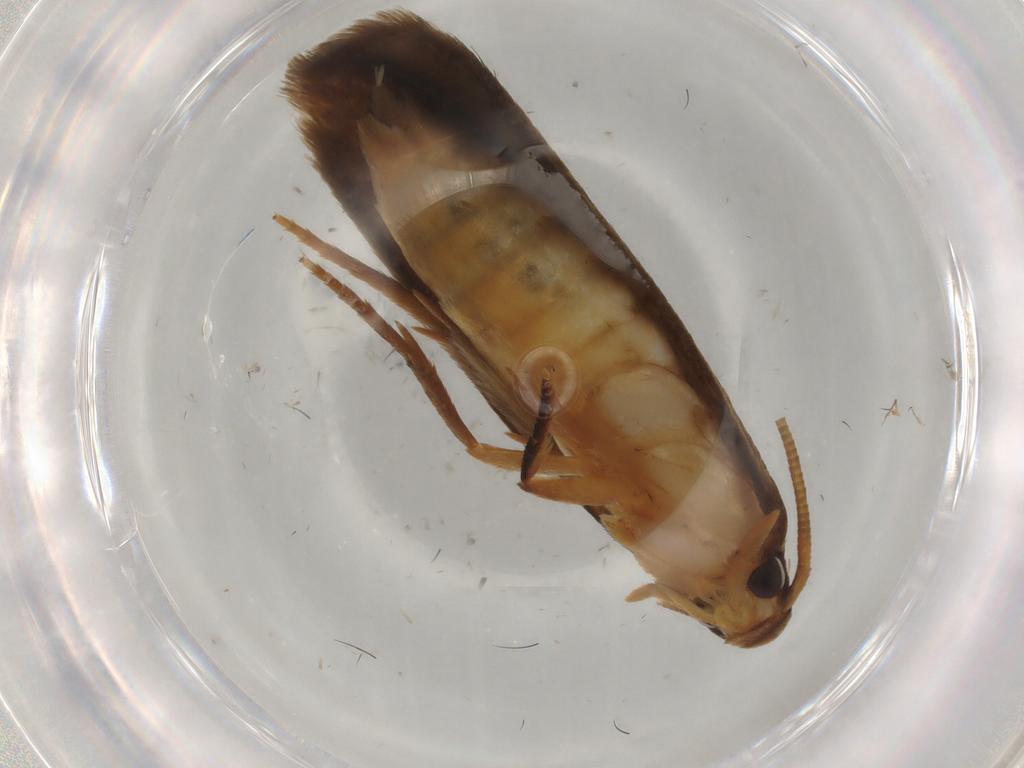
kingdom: Animalia
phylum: Arthropoda
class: Insecta
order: Lepidoptera
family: Tineidae
